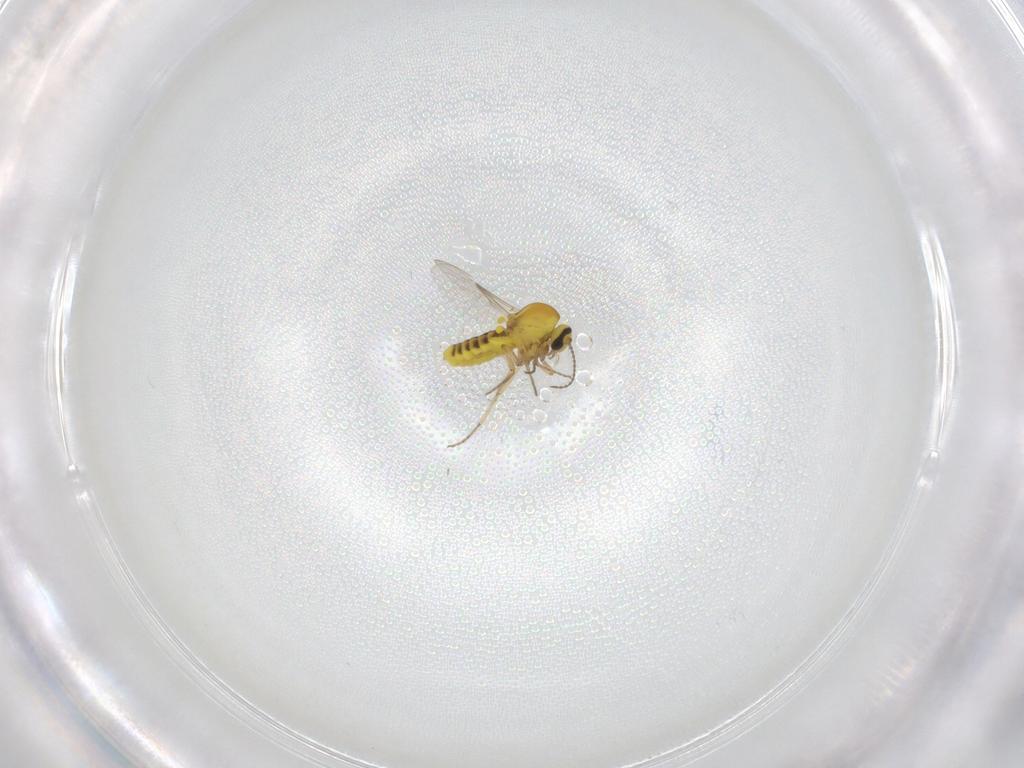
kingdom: Animalia
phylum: Arthropoda
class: Insecta
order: Diptera
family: Ceratopogonidae
